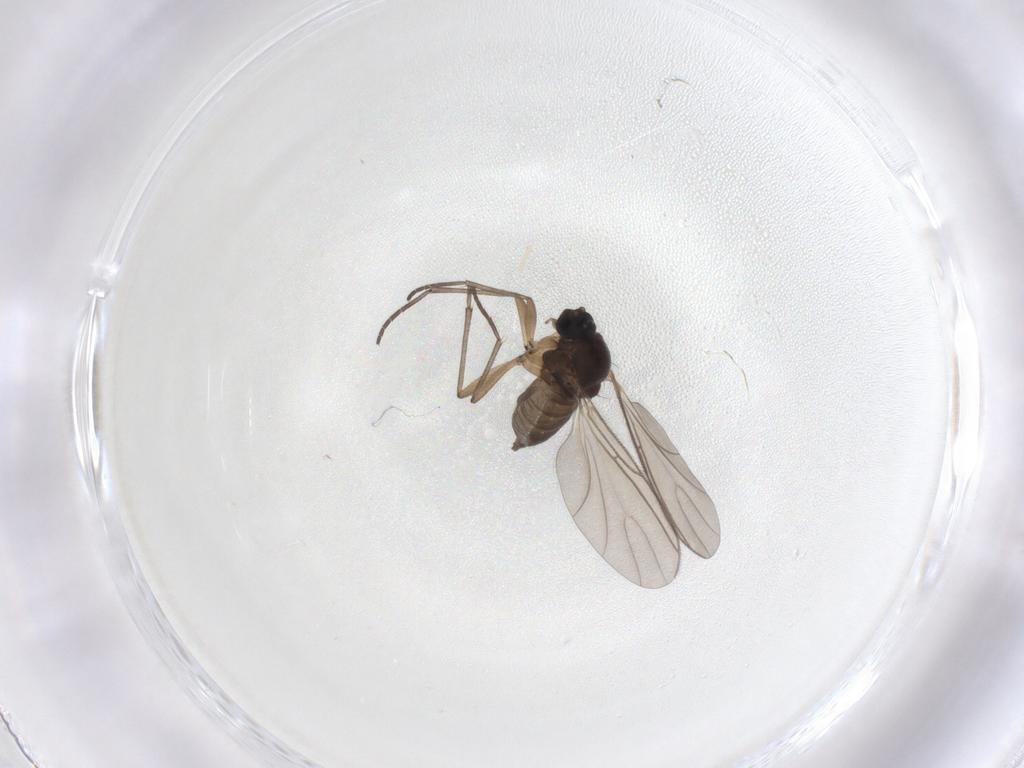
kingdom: Animalia
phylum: Arthropoda
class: Insecta
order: Diptera
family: Sciaridae
